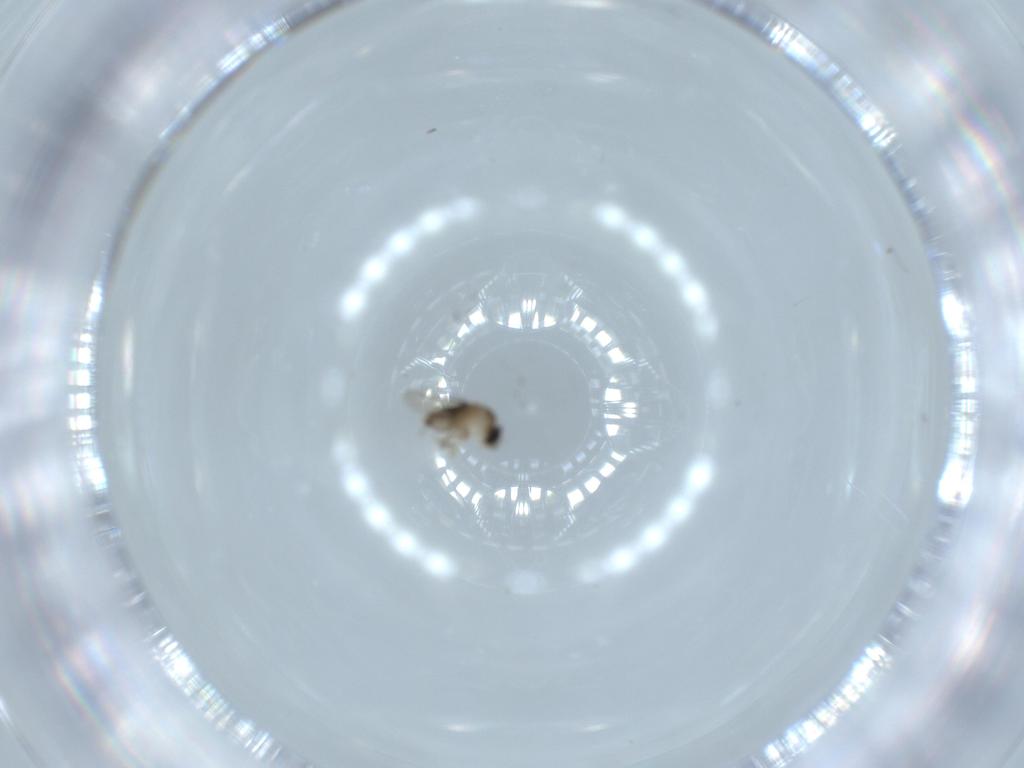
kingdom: Animalia
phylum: Arthropoda
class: Insecta
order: Diptera
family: Phoridae
